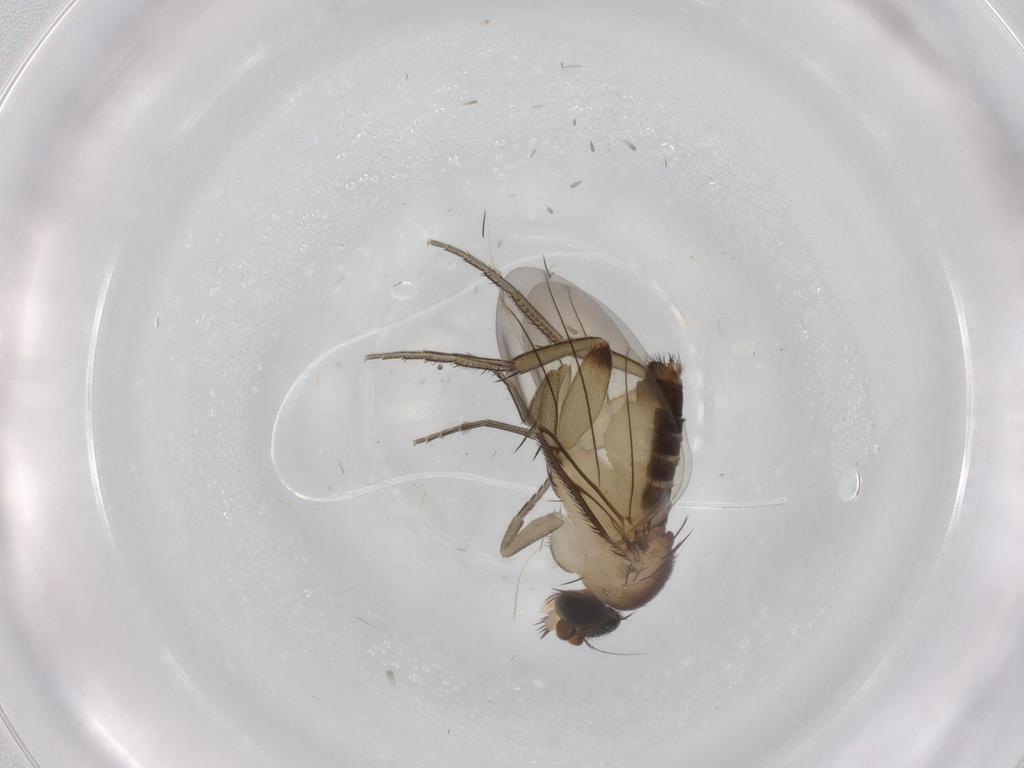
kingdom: Animalia
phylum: Arthropoda
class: Insecta
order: Diptera
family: Phoridae
